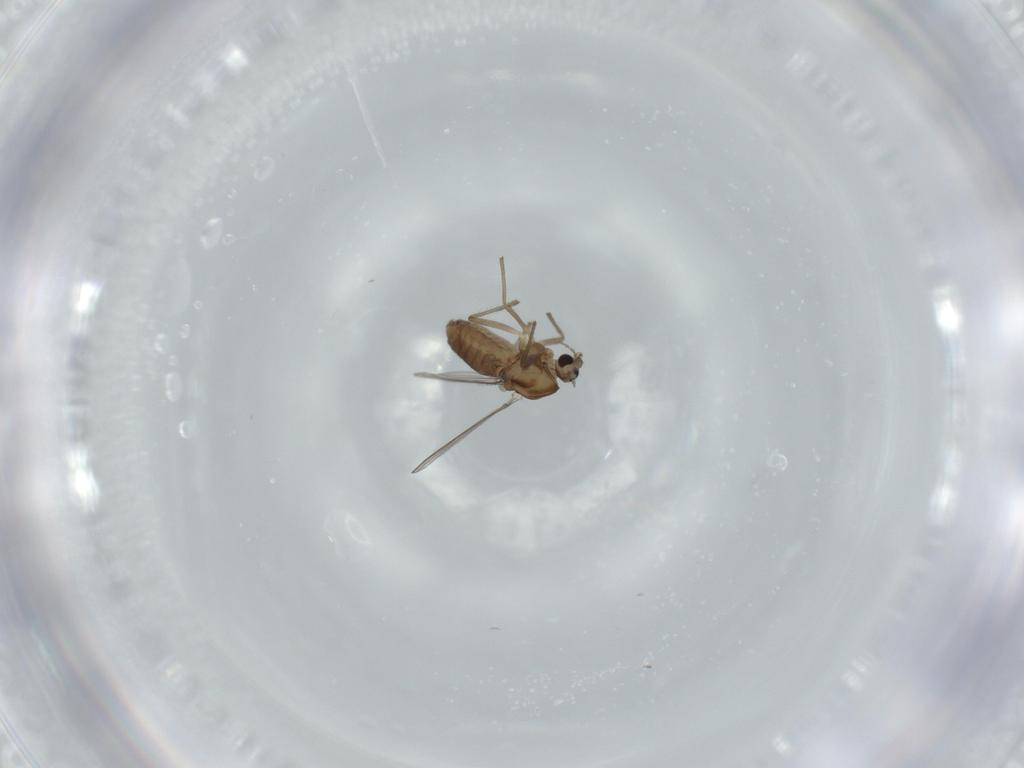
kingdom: Animalia
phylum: Arthropoda
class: Insecta
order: Diptera
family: Chironomidae
